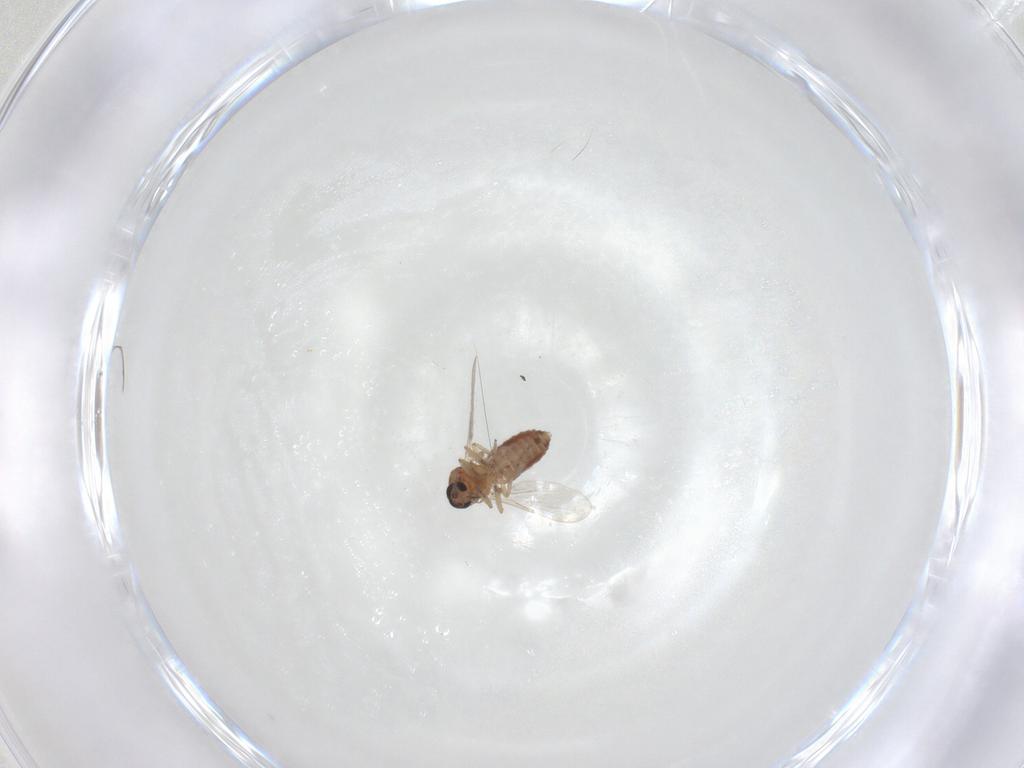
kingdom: Animalia
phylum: Arthropoda
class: Insecta
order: Diptera
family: Ceratopogonidae
